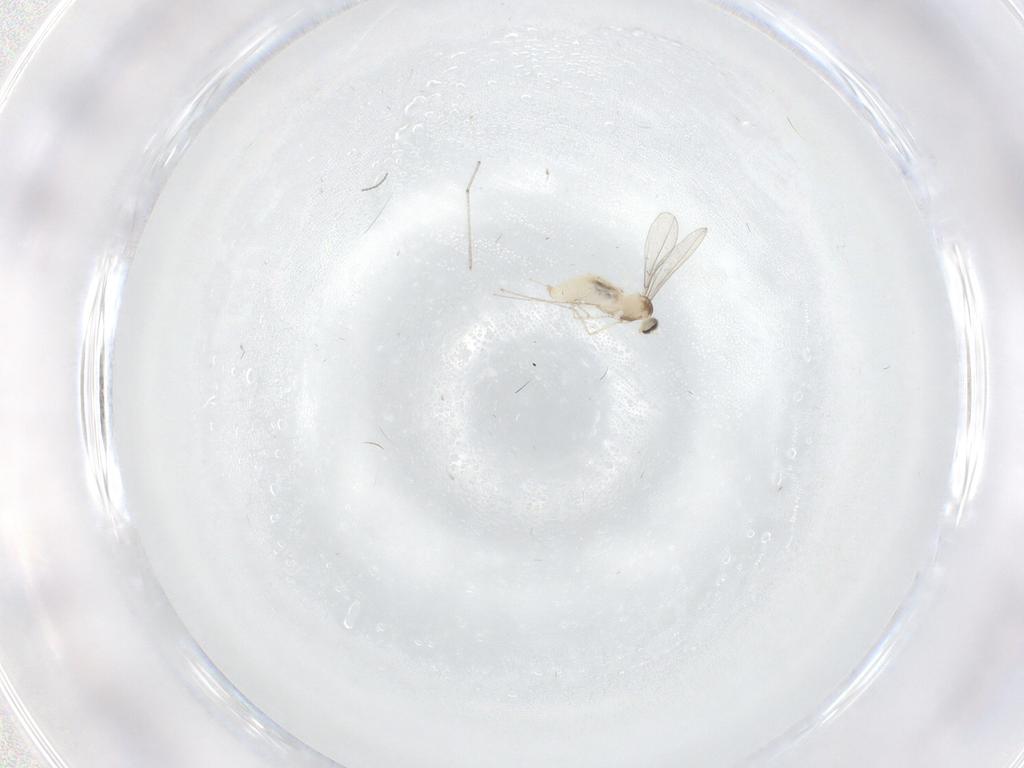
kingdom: Animalia
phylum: Arthropoda
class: Insecta
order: Diptera
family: Cecidomyiidae
